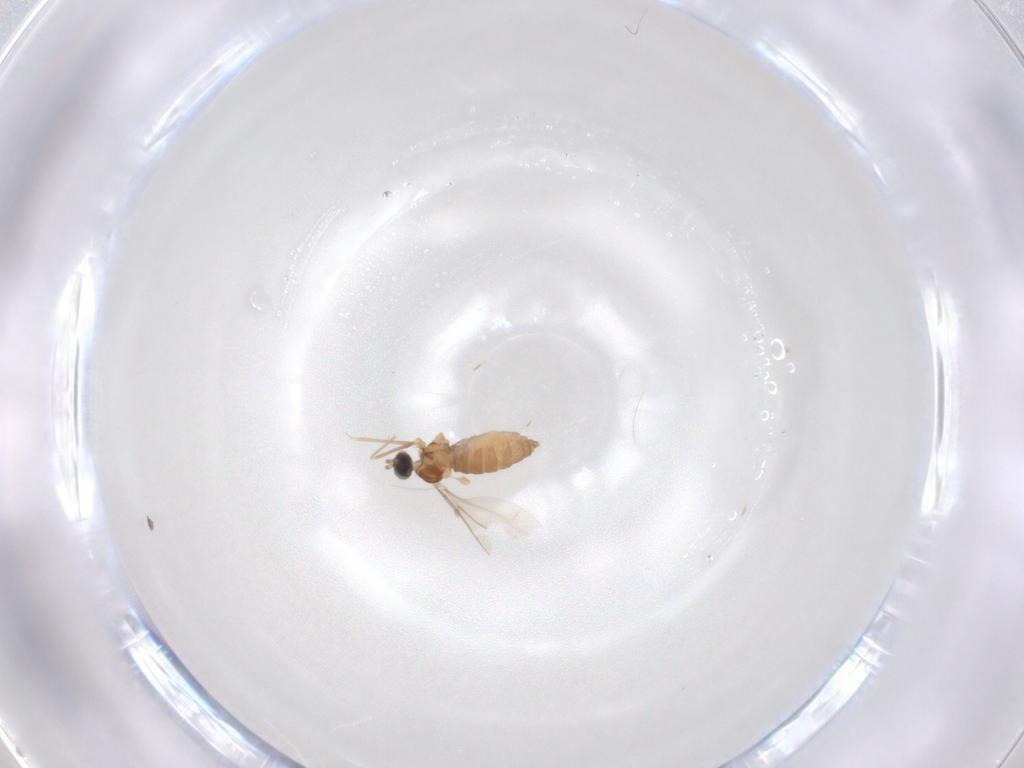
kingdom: Animalia
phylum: Arthropoda
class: Insecta
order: Diptera
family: Cecidomyiidae
